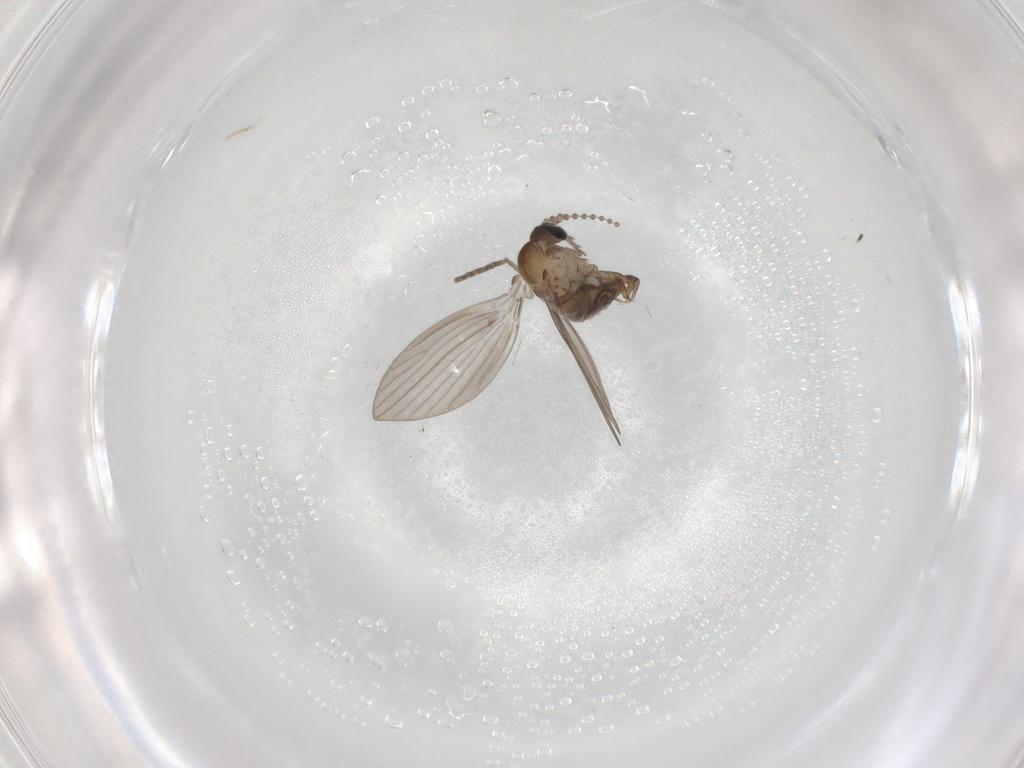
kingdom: Animalia
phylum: Arthropoda
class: Insecta
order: Diptera
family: Psychodidae
